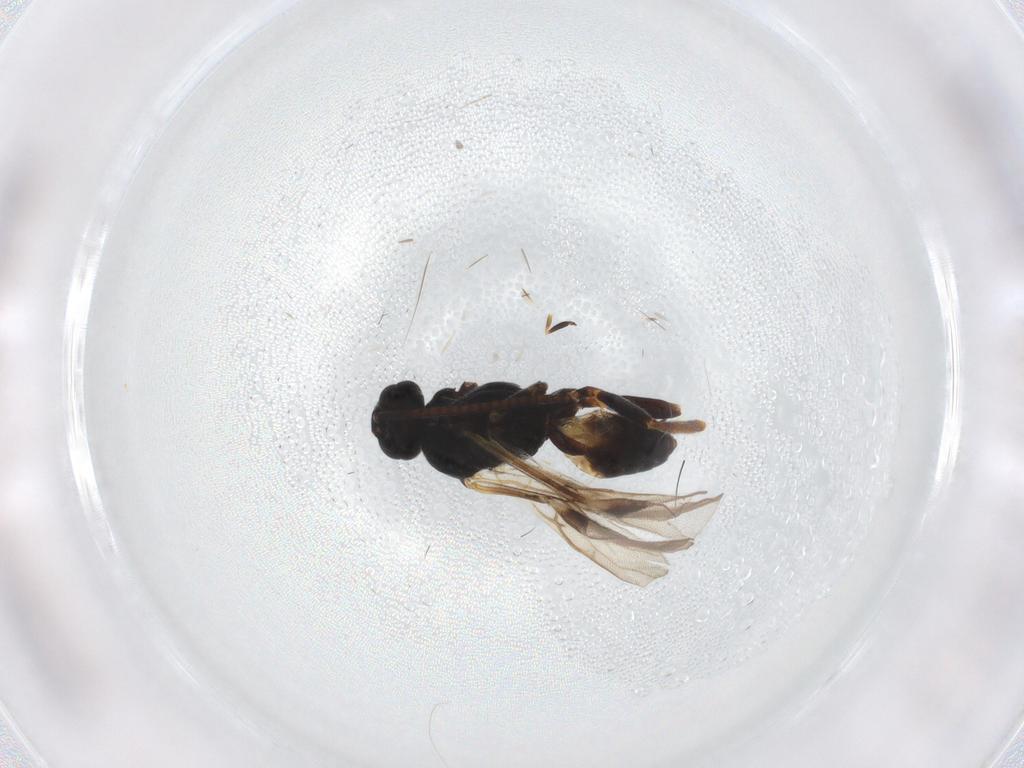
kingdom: Animalia
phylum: Arthropoda
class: Insecta
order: Hymenoptera
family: Braconidae
